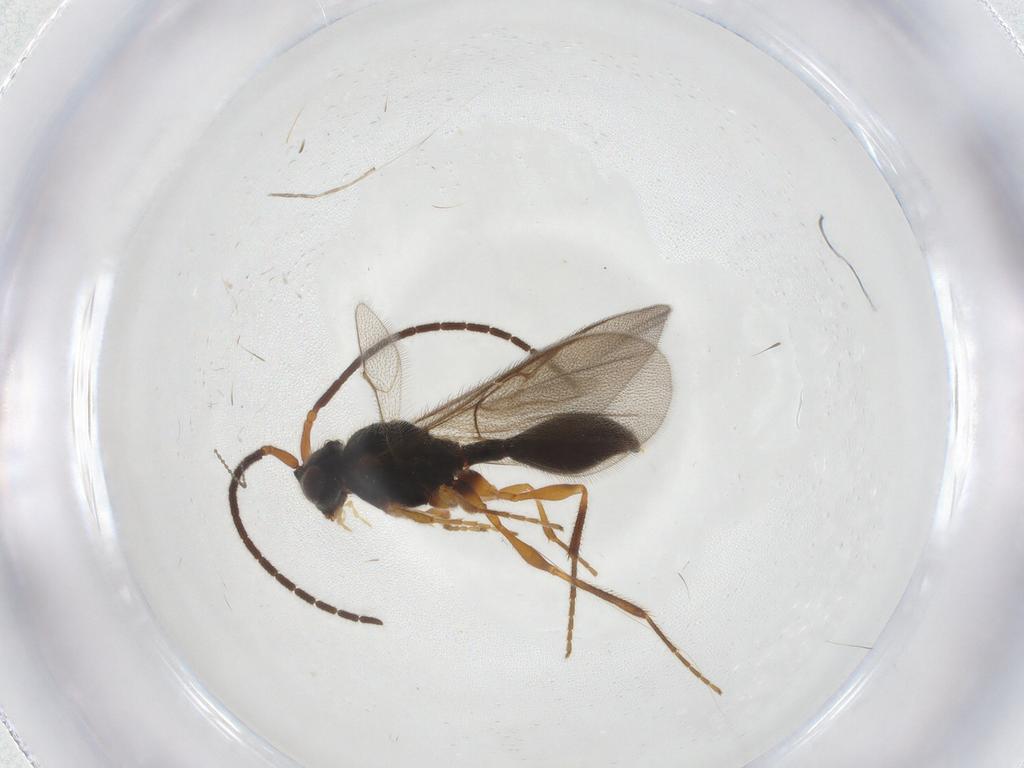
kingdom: Animalia
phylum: Arthropoda
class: Insecta
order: Hymenoptera
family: Diapriidae
